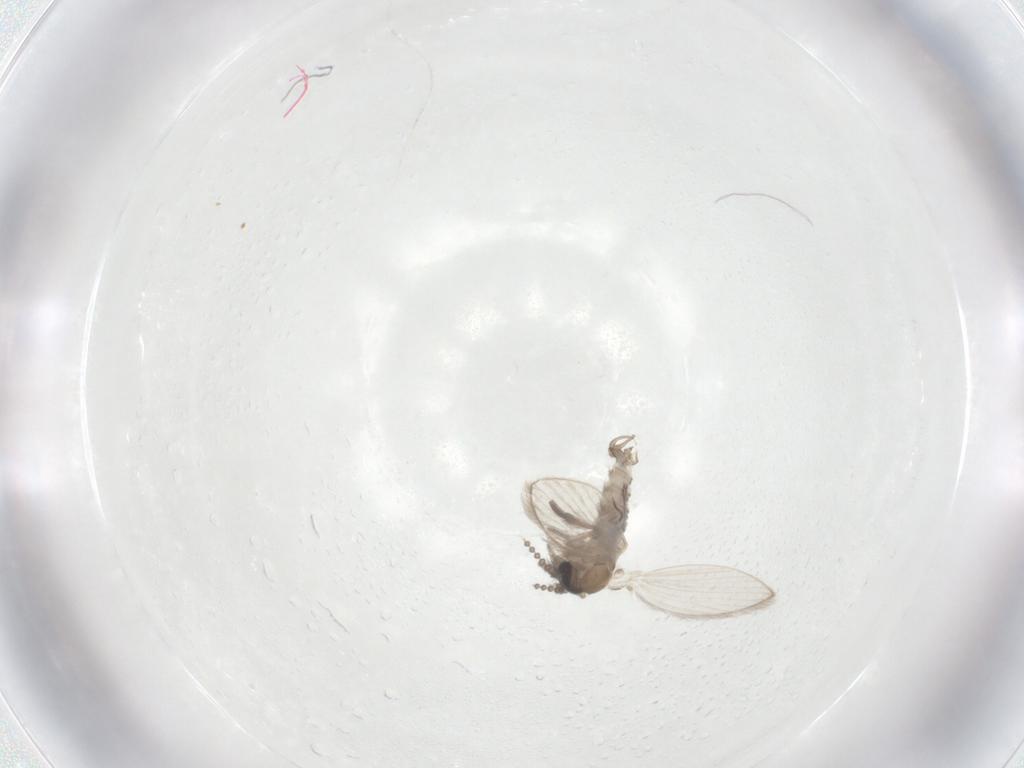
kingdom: Animalia
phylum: Arthropoda
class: Insecta
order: Diptera
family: Psychodidae
